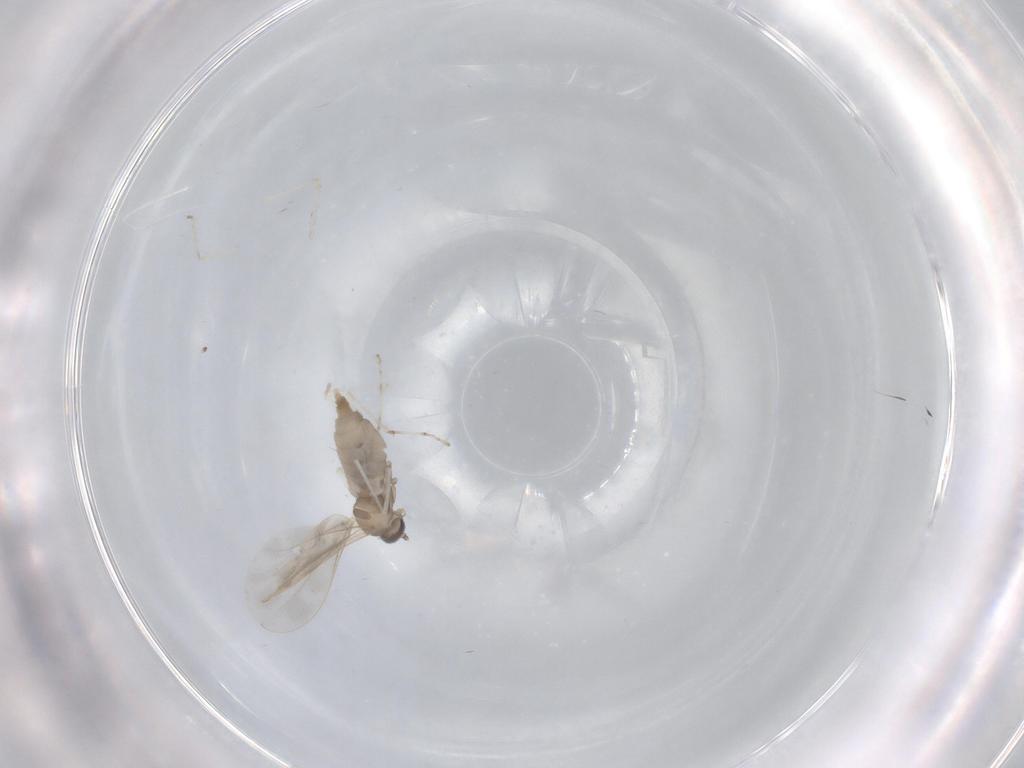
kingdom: Animalia
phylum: Arthropoda
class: Insecta
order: Diptera
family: Cecidomyiidae
